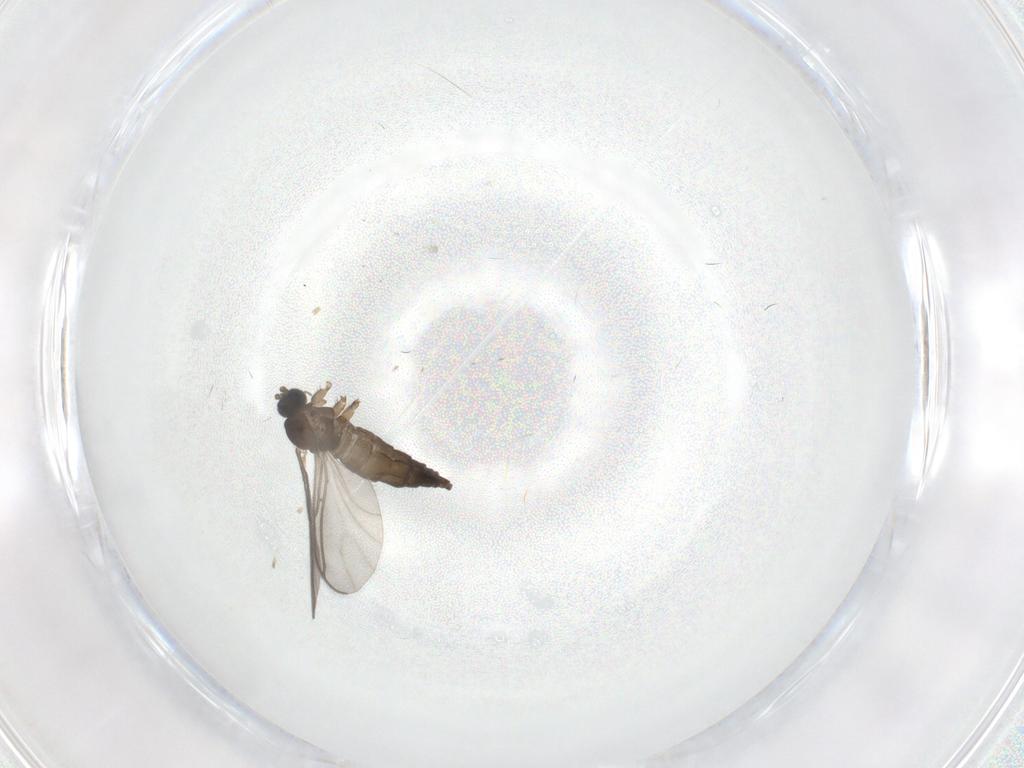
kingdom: Animalia
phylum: Arthropoda
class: Insecta
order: Diptera
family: Sciaridae
